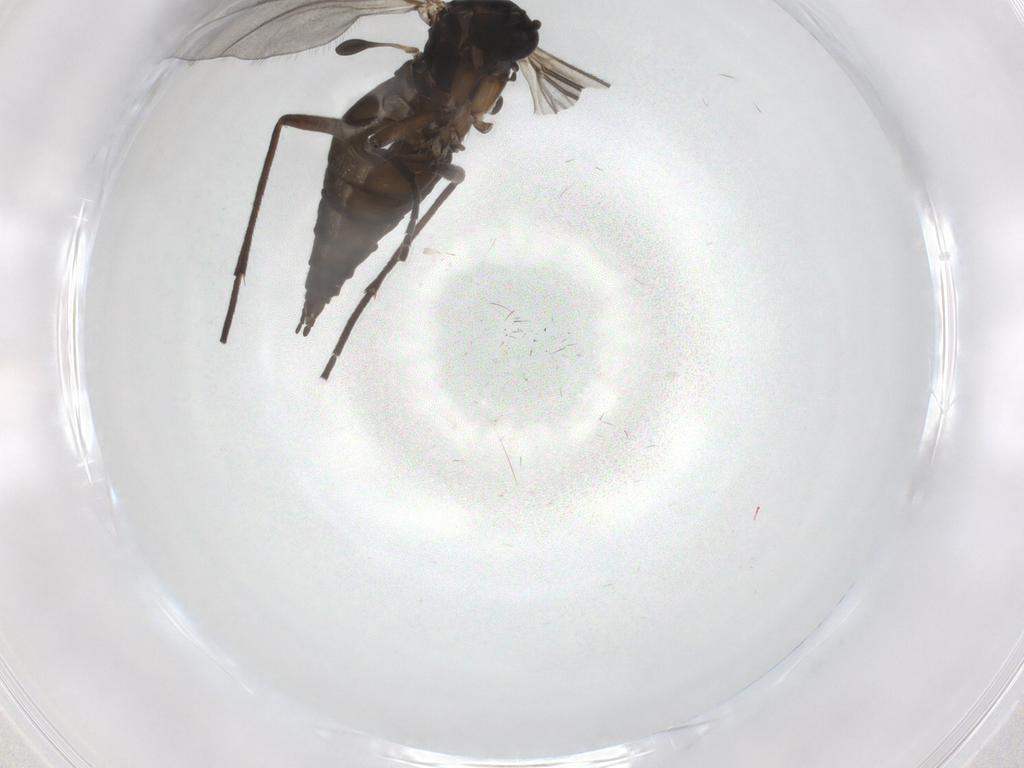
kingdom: Animalia
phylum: Arthropoda
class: Insecta
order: Diptera
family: Sciaridae
